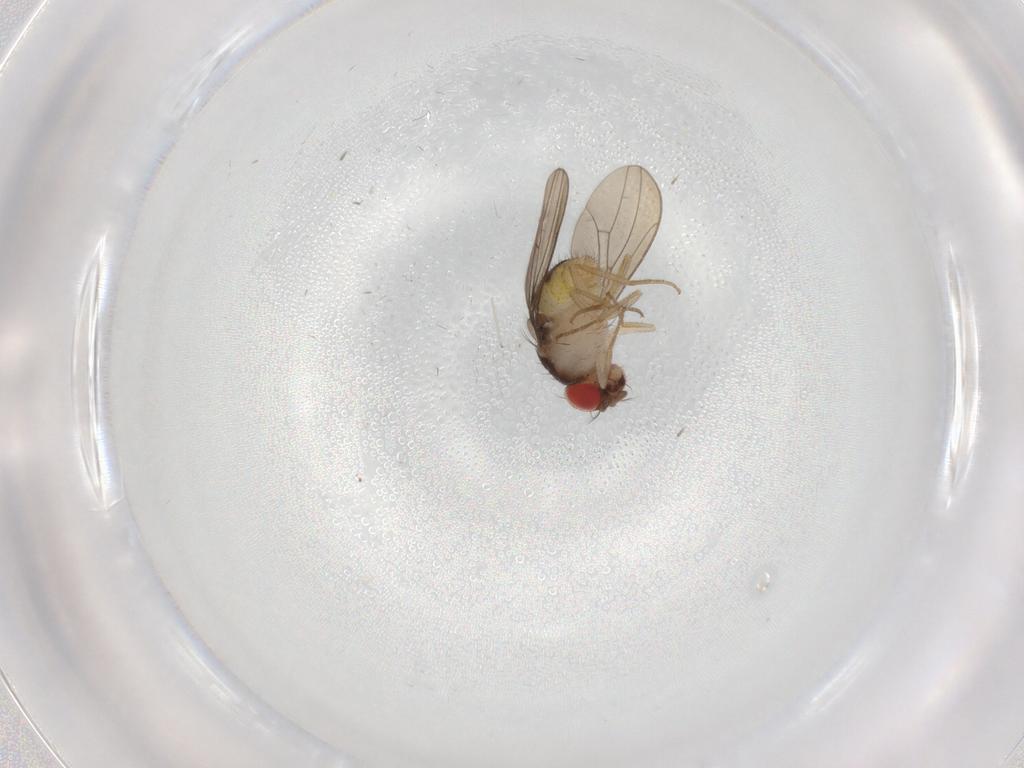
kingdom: Animalia
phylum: Arthropoda
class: Insecta
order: Diptera
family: Drosophilidae
